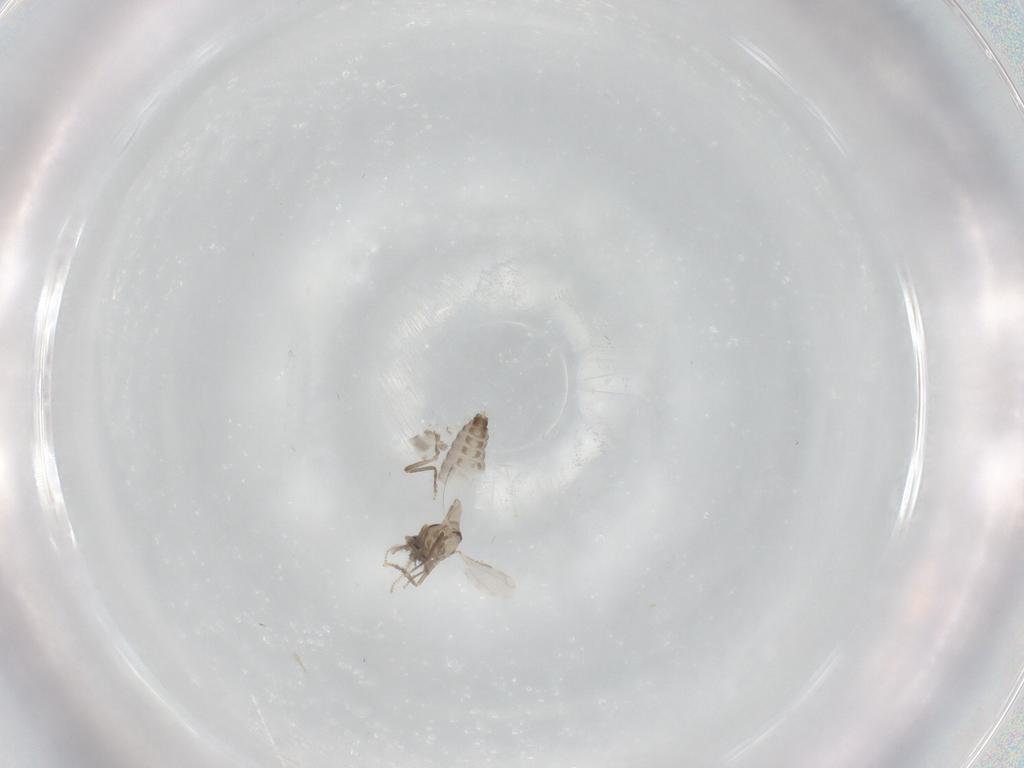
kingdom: Animalia
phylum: Arthropoda
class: Insecta
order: Diptera
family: Ceratopogonidae
